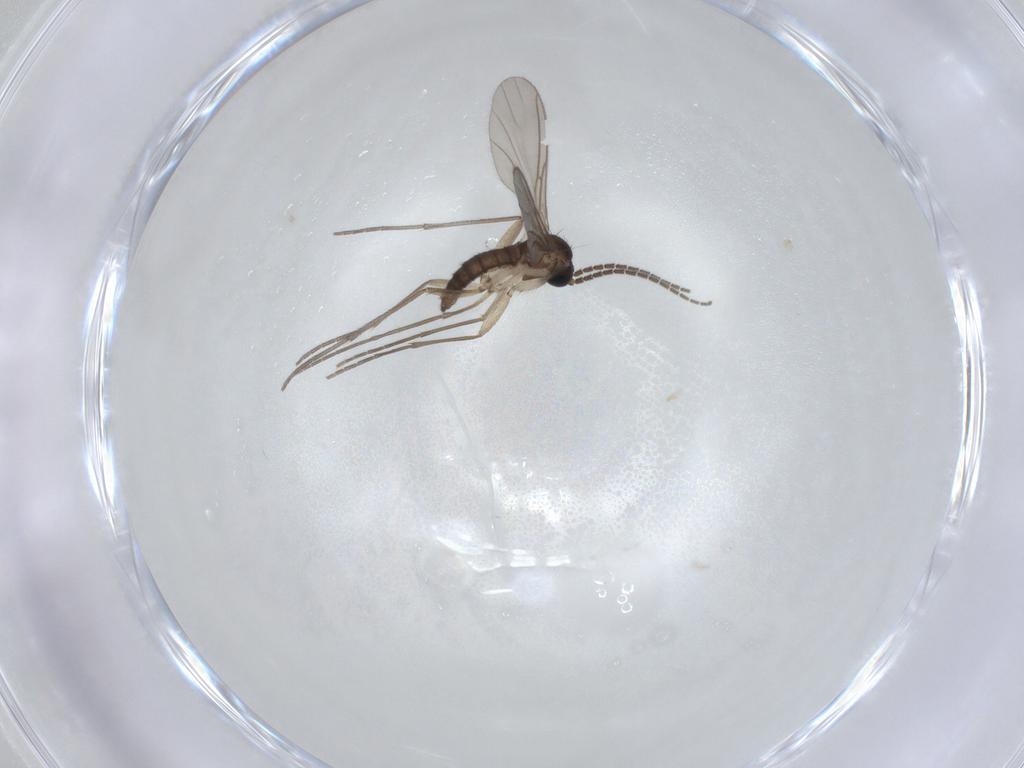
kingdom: Animalia
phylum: Arthropoda
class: Insecta
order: Diptera
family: Sciaridae
